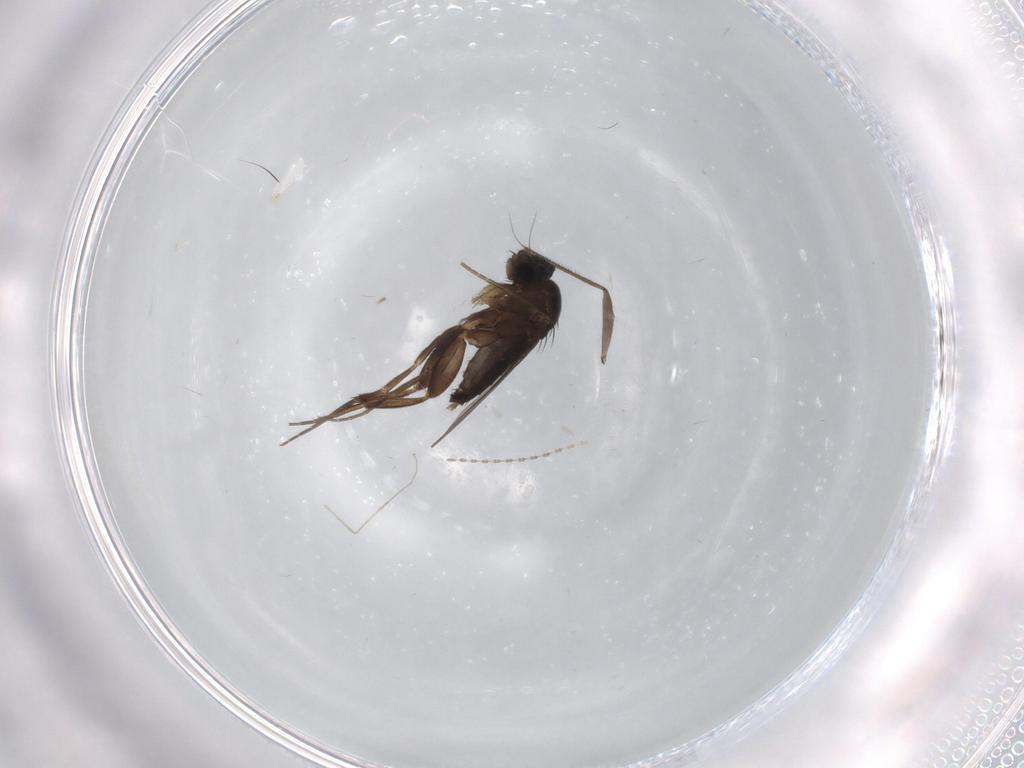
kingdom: Animalia
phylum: Arthropoda
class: Insecta
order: Diptera
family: Phoridae
